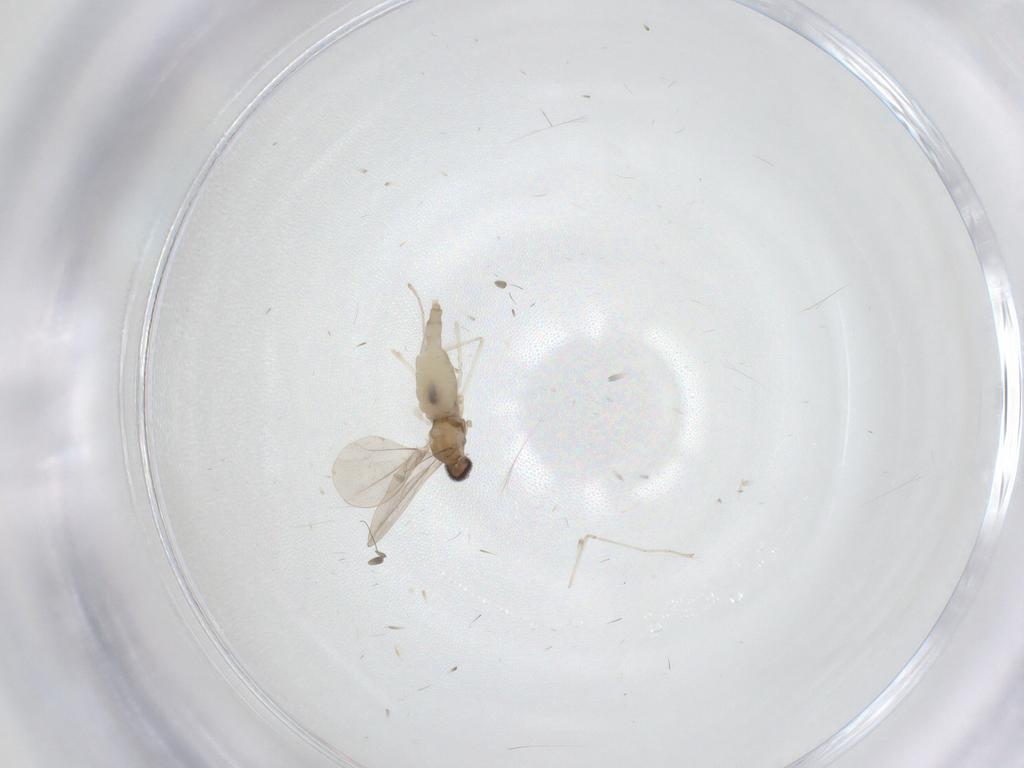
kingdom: Animalia
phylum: Arthropoda
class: Insecta
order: Diptera
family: Cecidomyiidae
